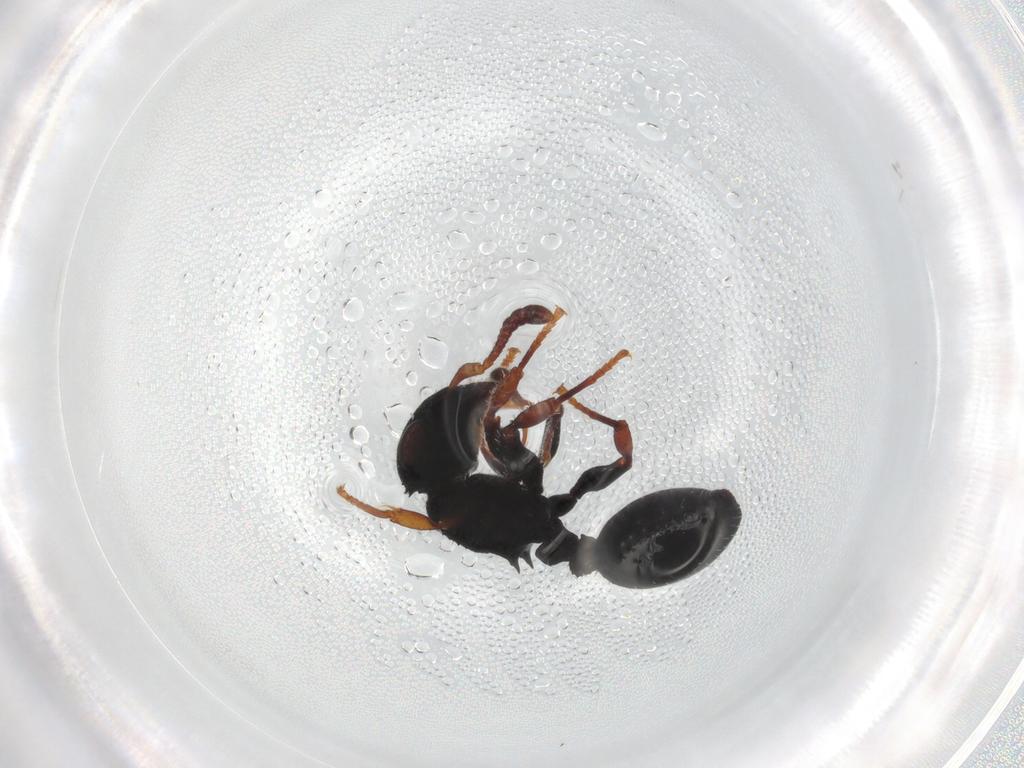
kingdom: Animalia
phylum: Arthropoda
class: Insecta
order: Hymenoptera
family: Formicidae
